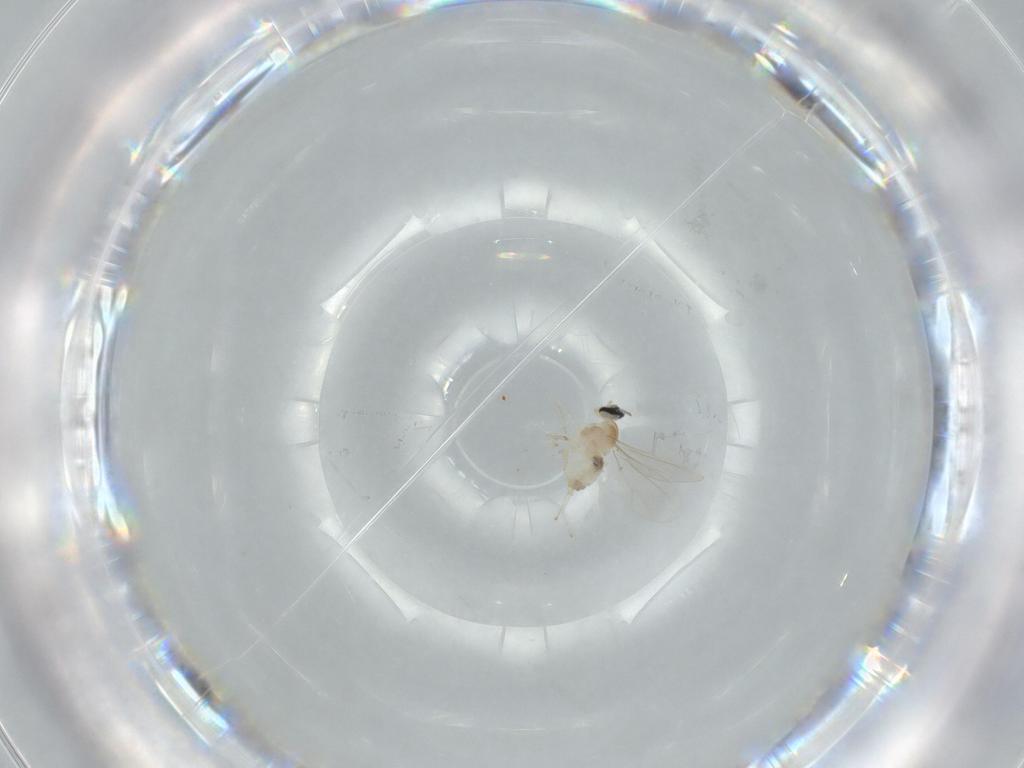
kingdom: Animalia
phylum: Arthropoda
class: Insecta
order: Diptera
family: Cecidomyiidae
